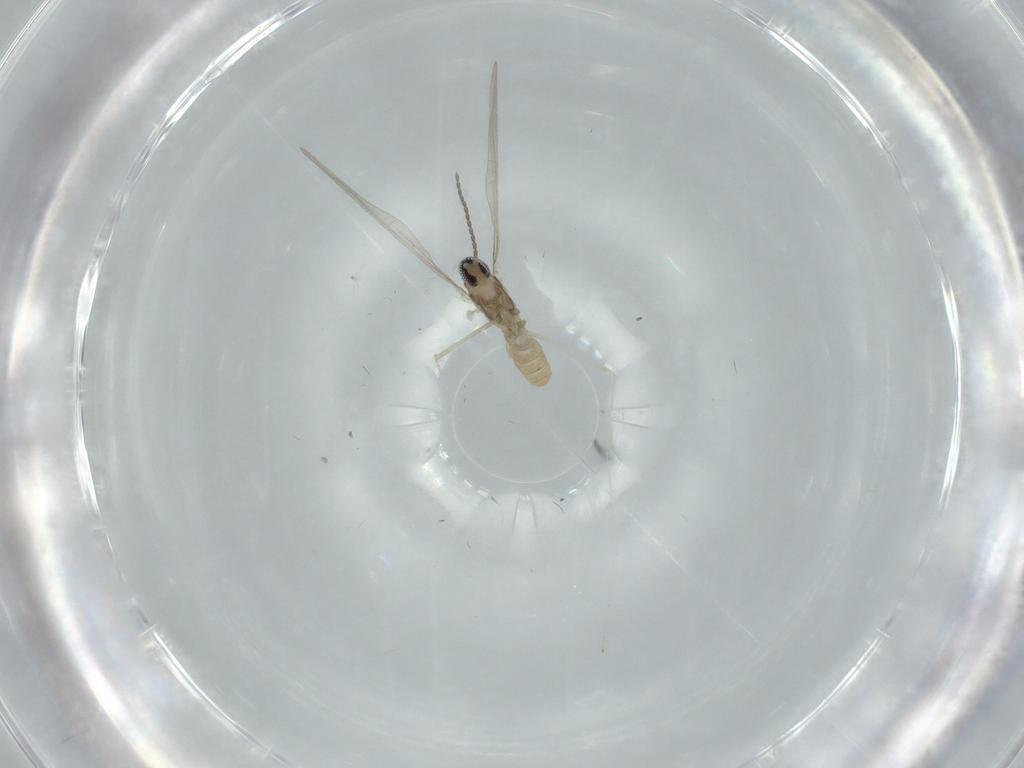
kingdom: Animalia
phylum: Arthropoda
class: Insecta
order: Diptera
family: Cecidomyiidae
